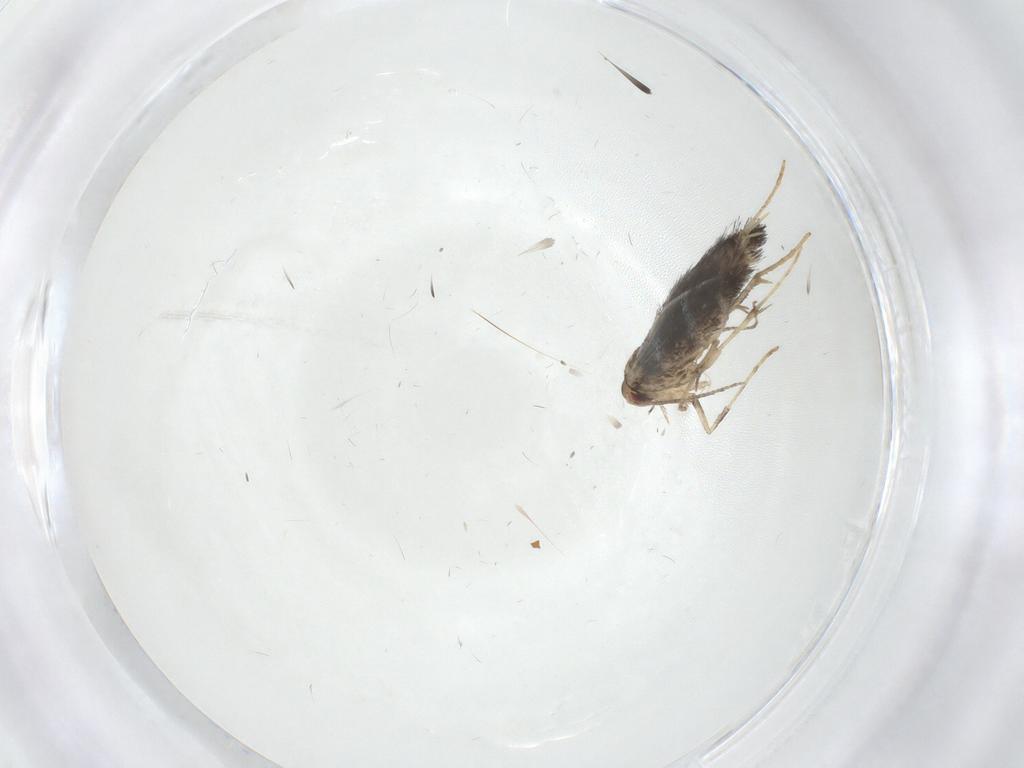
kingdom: Animalia
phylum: Arthropoda
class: Insecta
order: Lepidoptera
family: Gracillariidae
